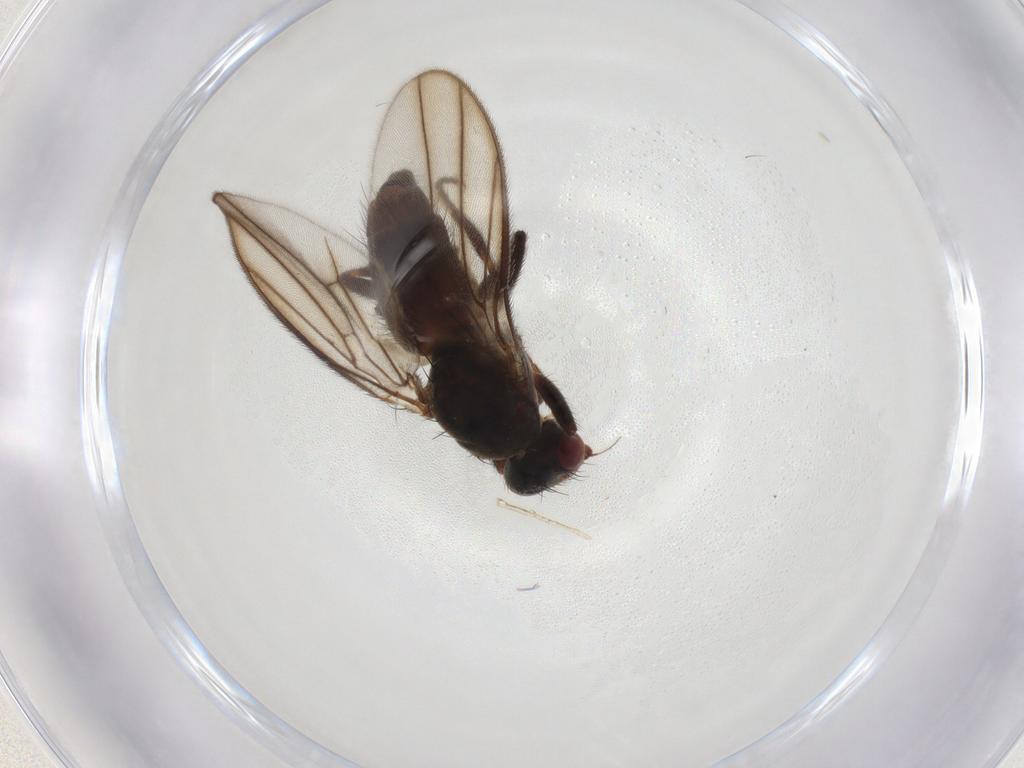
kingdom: Animalia
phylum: Arthropoda
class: Insecta
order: Diptera
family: Chloropidae
